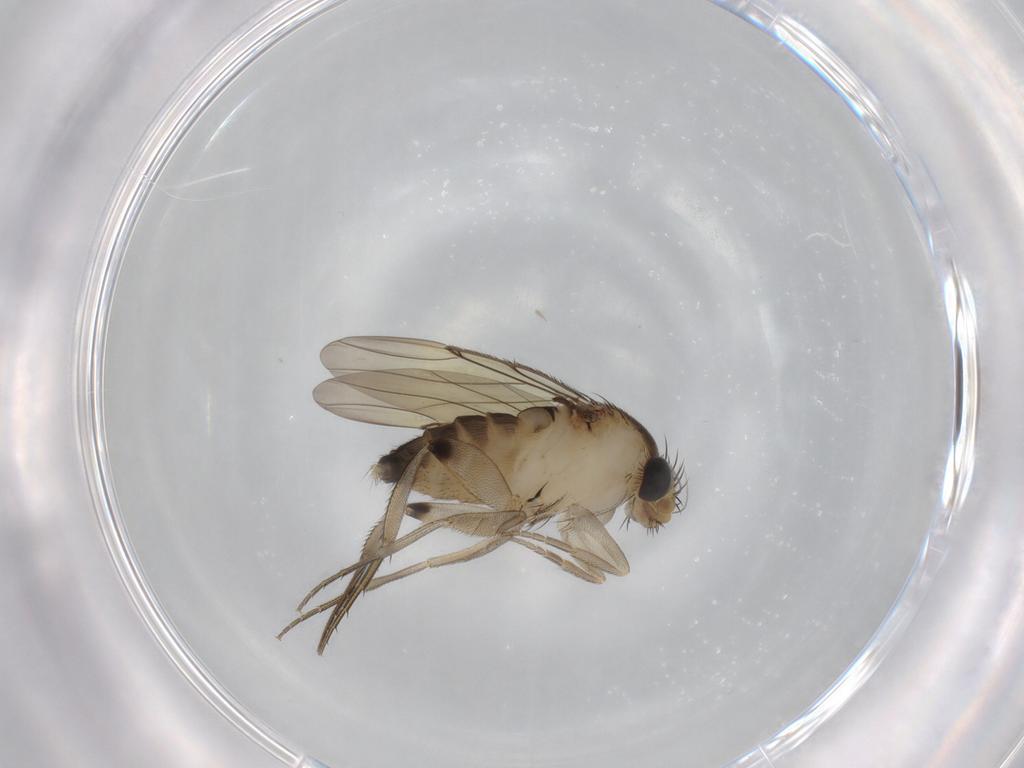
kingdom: Animalia
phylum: Arthropoda
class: Insecta
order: Diptera
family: Phoridae
